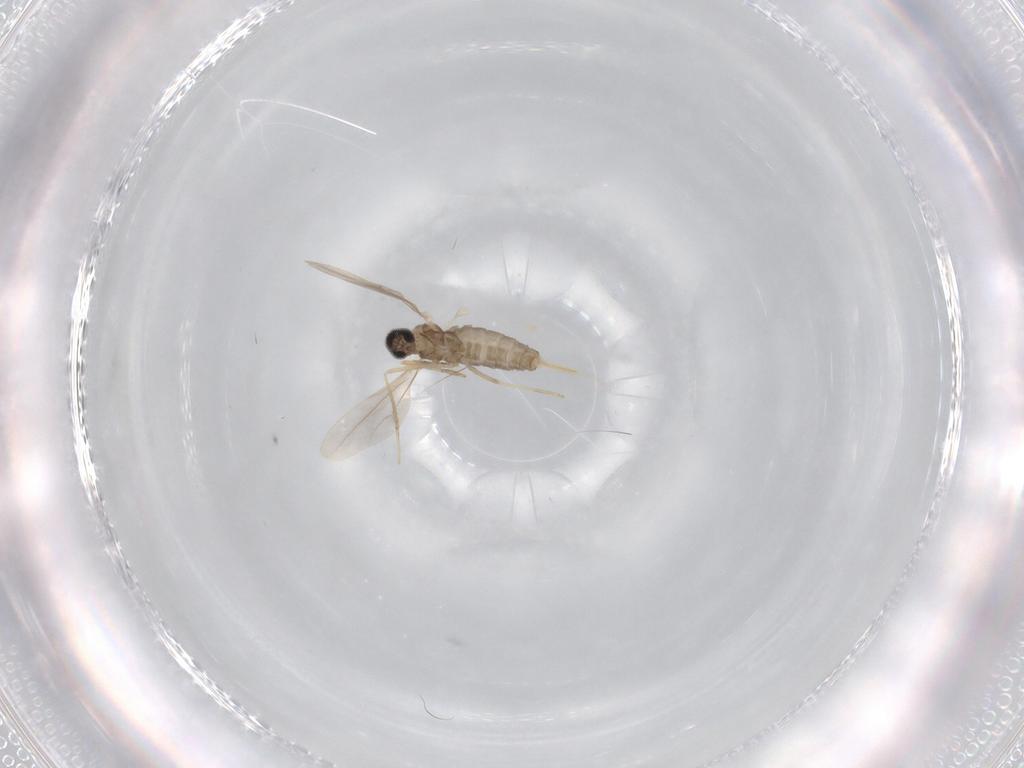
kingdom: Animalia
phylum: Arthropoda
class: Insecta
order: Diptera
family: Cecidomyiidae
